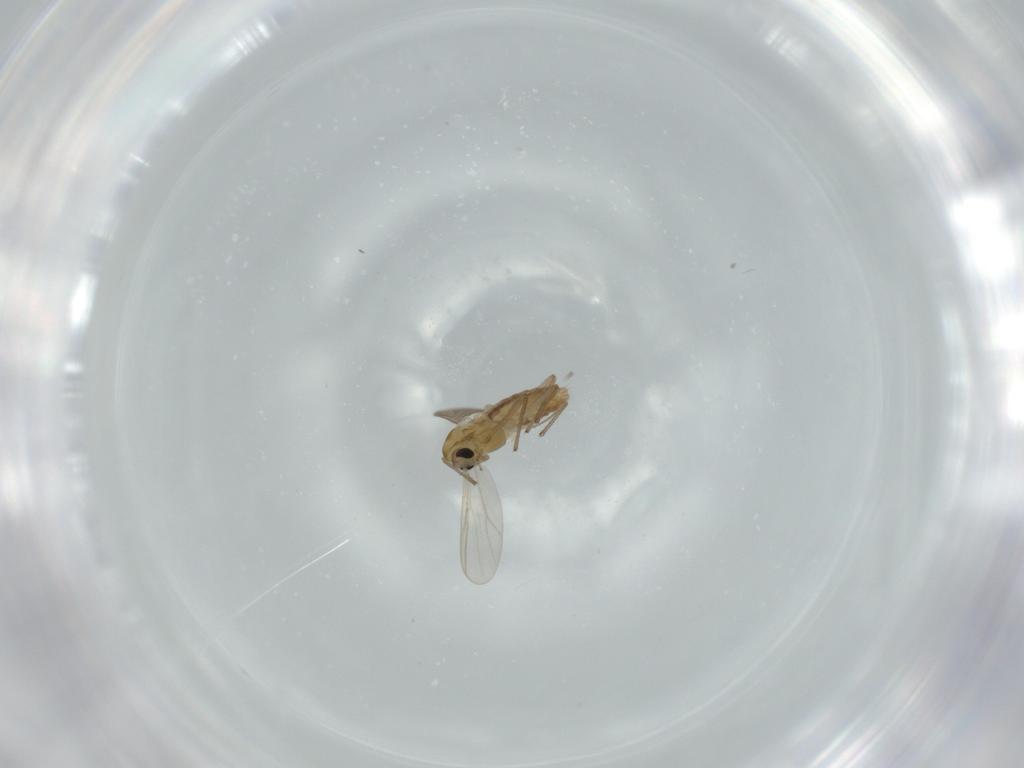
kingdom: Animalia
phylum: Arthropoda
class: Insecta
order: Diptera
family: Chironomidae
